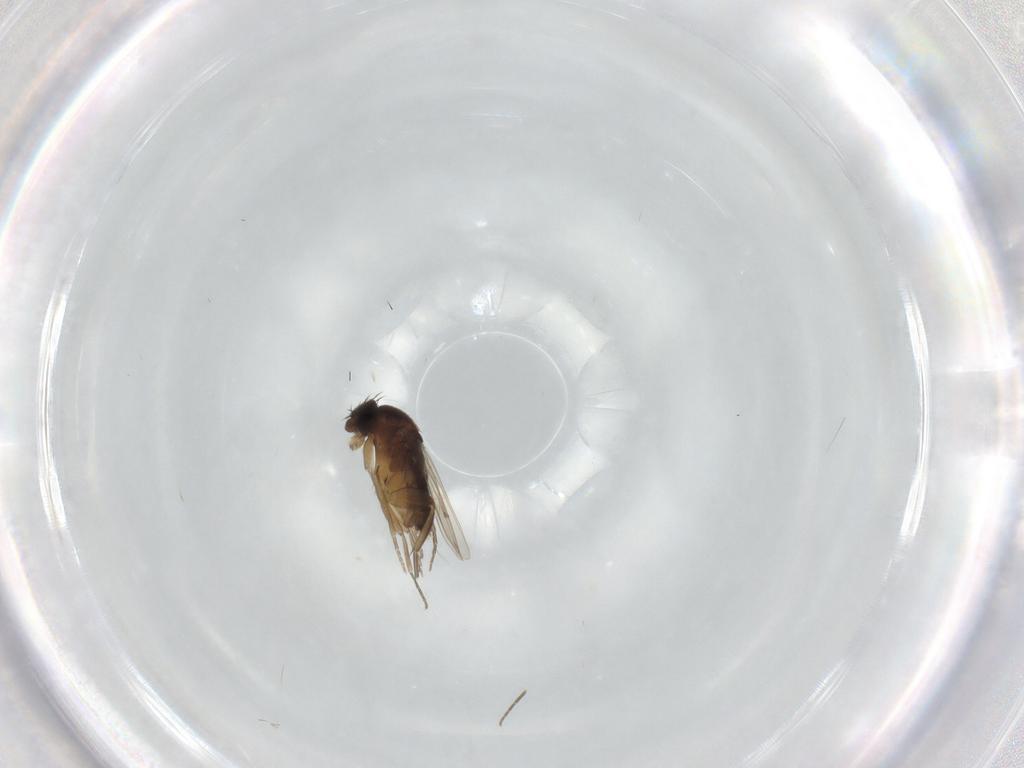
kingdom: Animalia
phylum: Arthropoda
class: Insecta
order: Diptera
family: Phoridae
